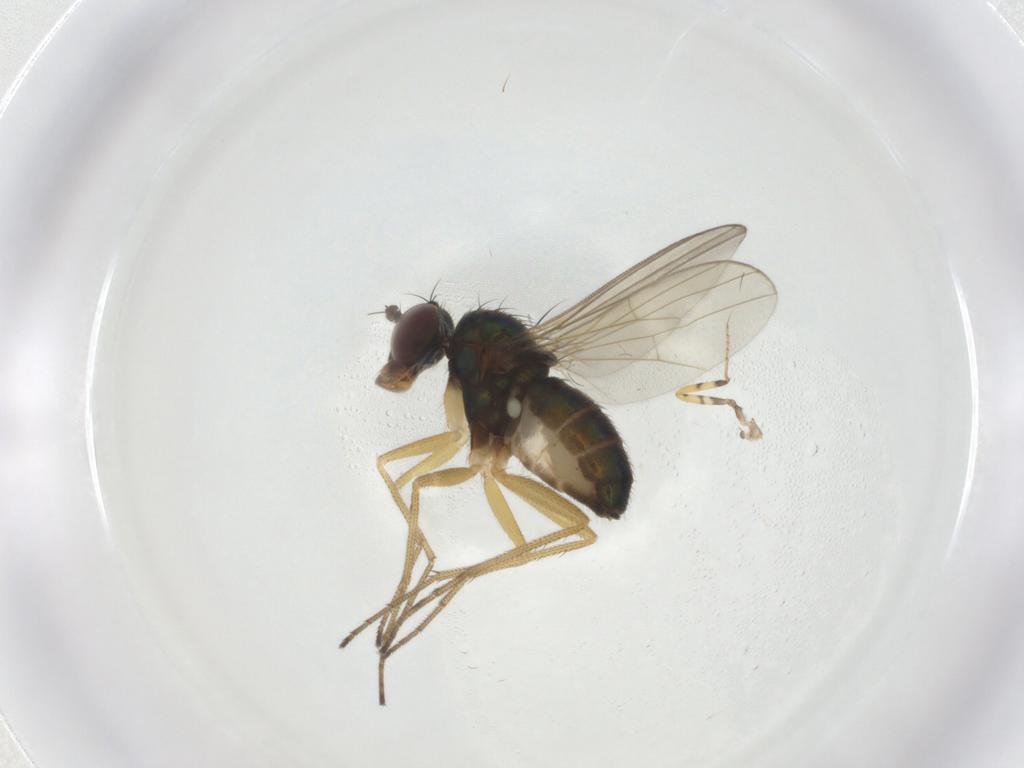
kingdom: Animalia
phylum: Arthropoda
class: Insecta
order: Diptera
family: Dolichopodidae
